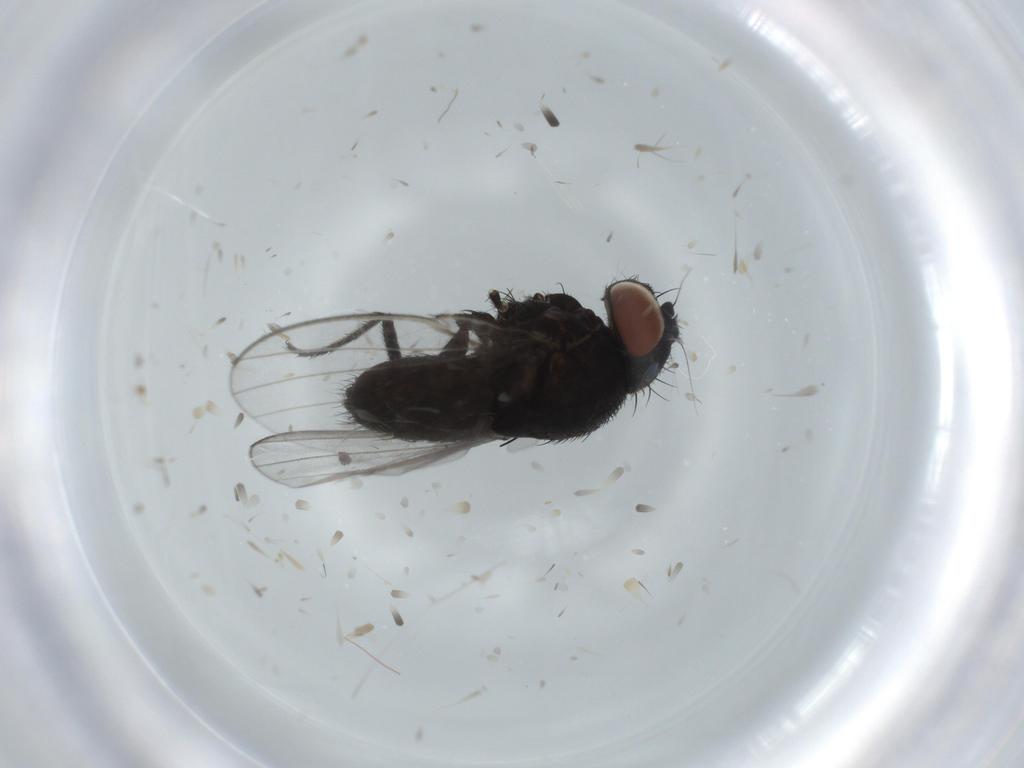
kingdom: Animalia
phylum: Arthropoda
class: Insecta
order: Diptera
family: Milichiidae
